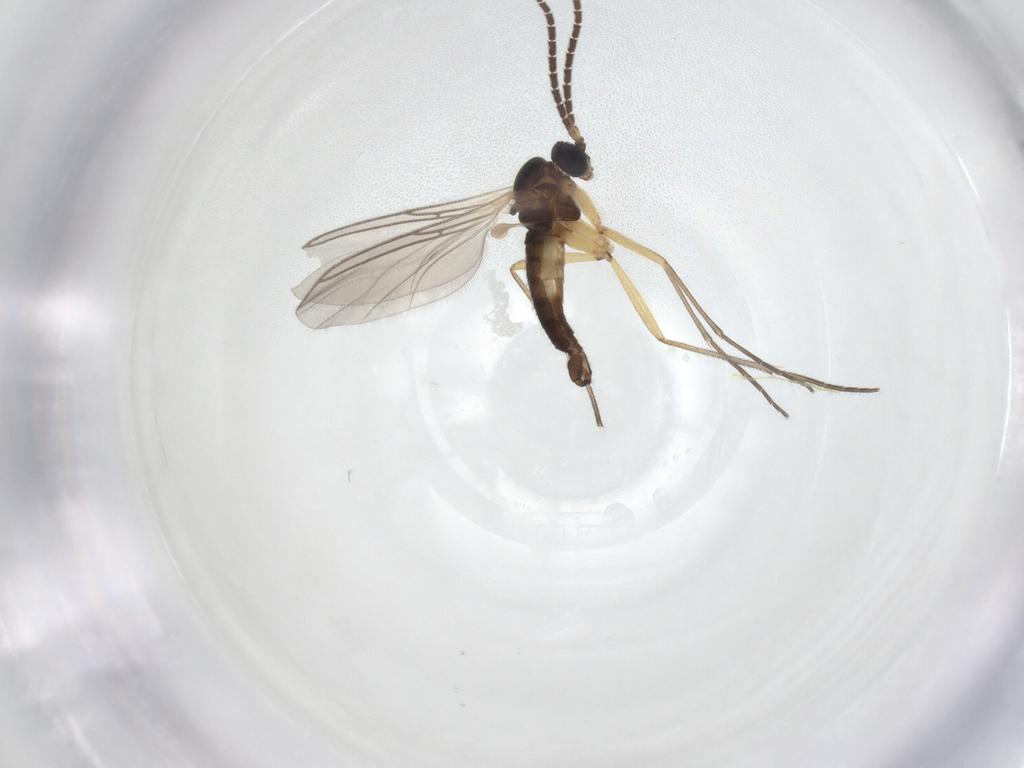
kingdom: Animalia
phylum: Arthropoda
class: Insecta
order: Diptera
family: Sciaridae
